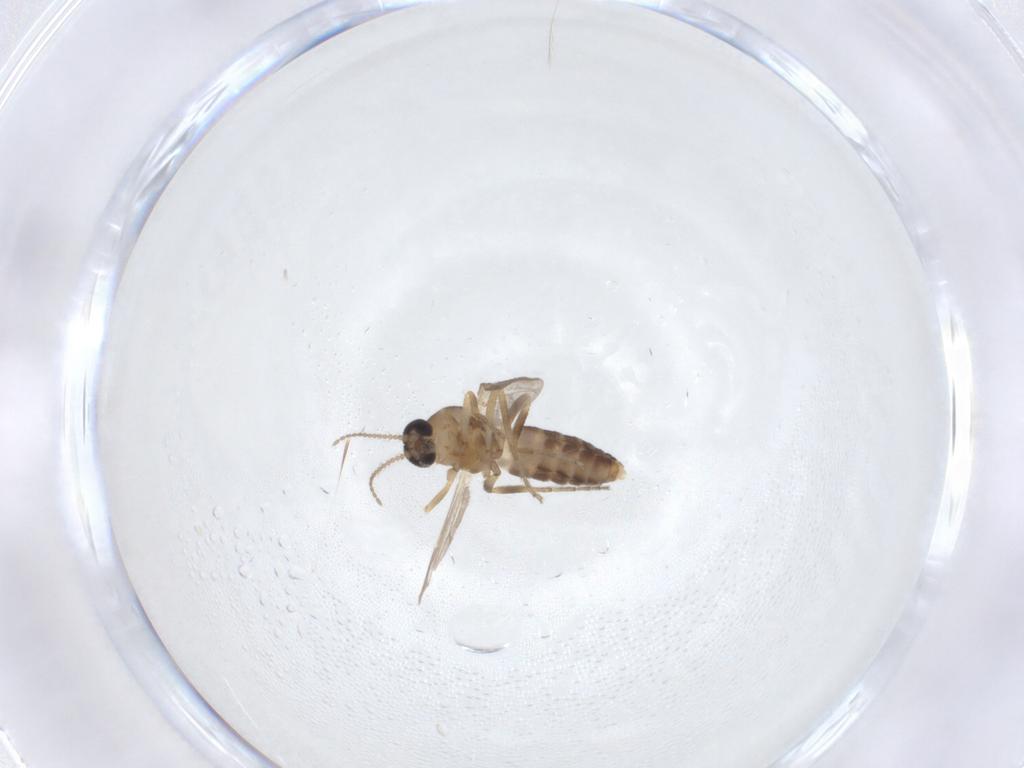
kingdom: Animalia
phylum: Arthropoda
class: Insecta
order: Diptera
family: Ceratopogonidae
